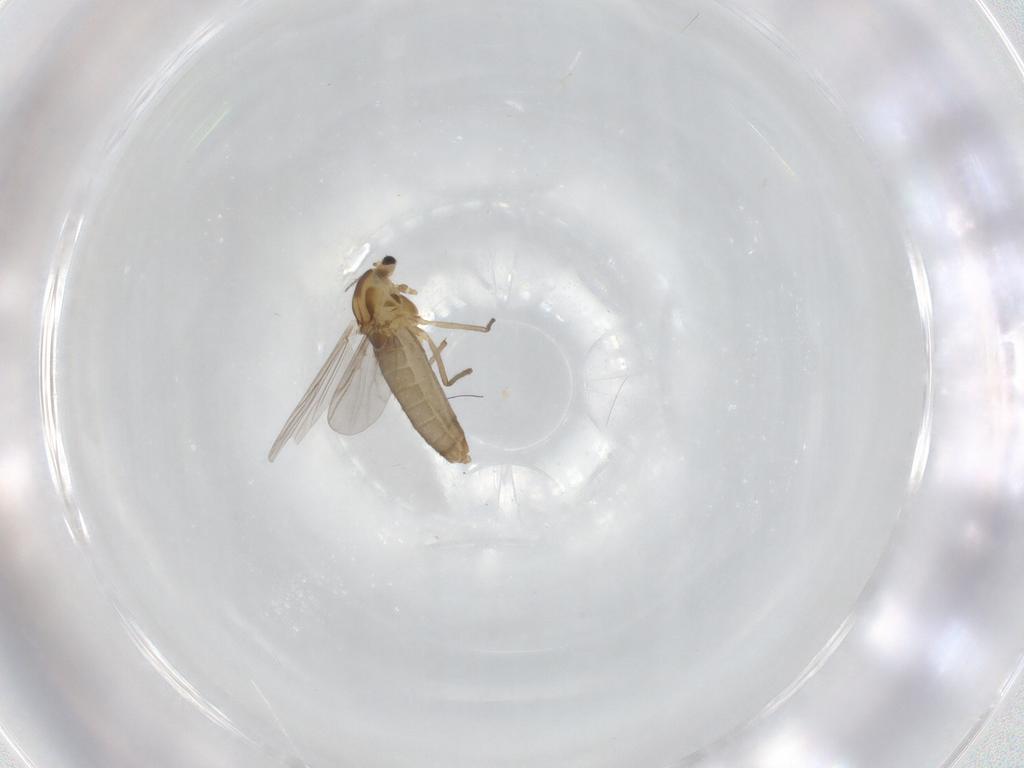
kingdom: Animalia
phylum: Arthropoda
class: Insecta
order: Diptera
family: Chironomidae
